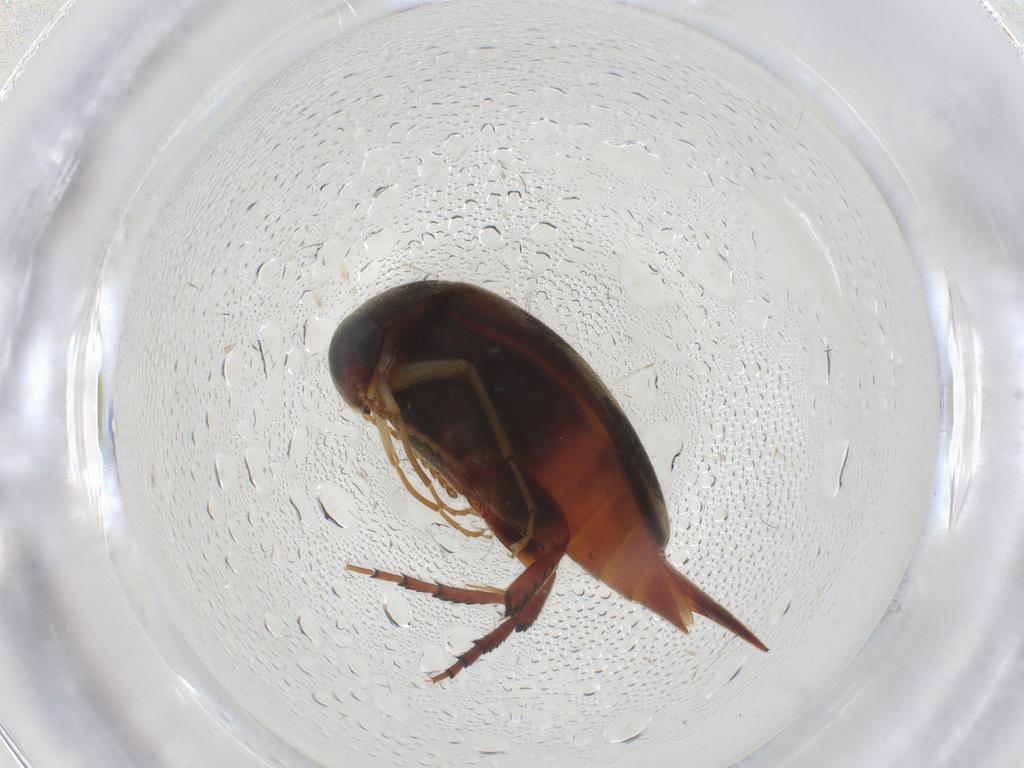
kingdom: Animalia
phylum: Arthropoda
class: Insecta
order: Coleoptera
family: Mordellidae
